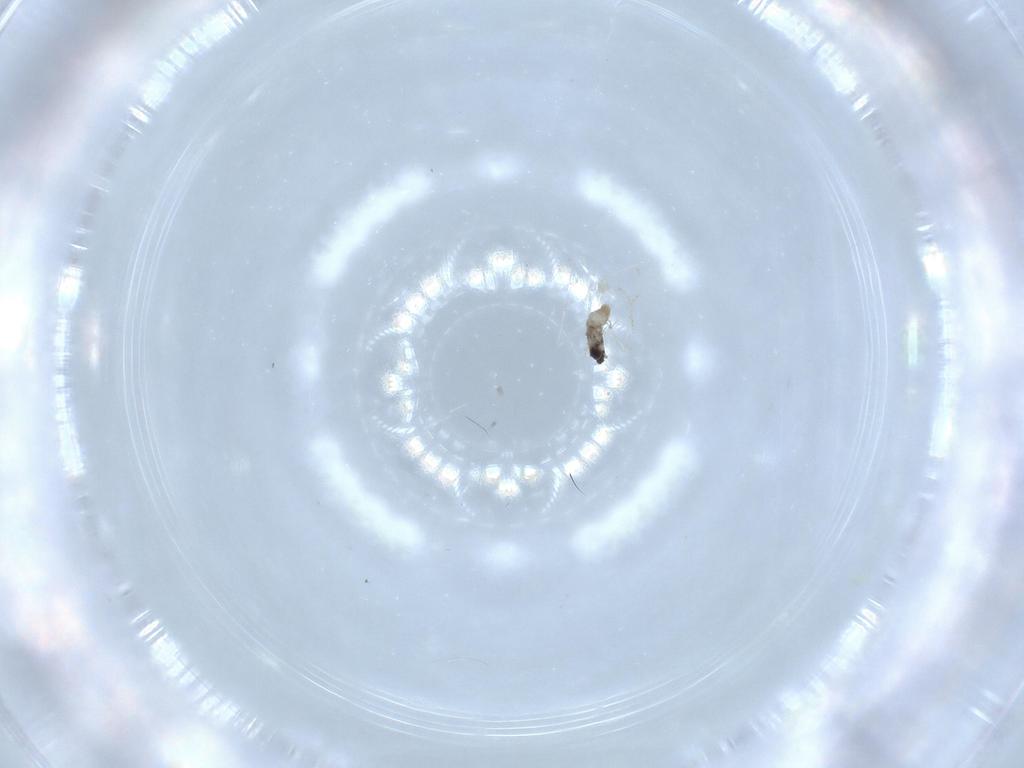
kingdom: Animalia
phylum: Arthropoda
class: Insecta
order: Diptera
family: Cecidomyiidae
